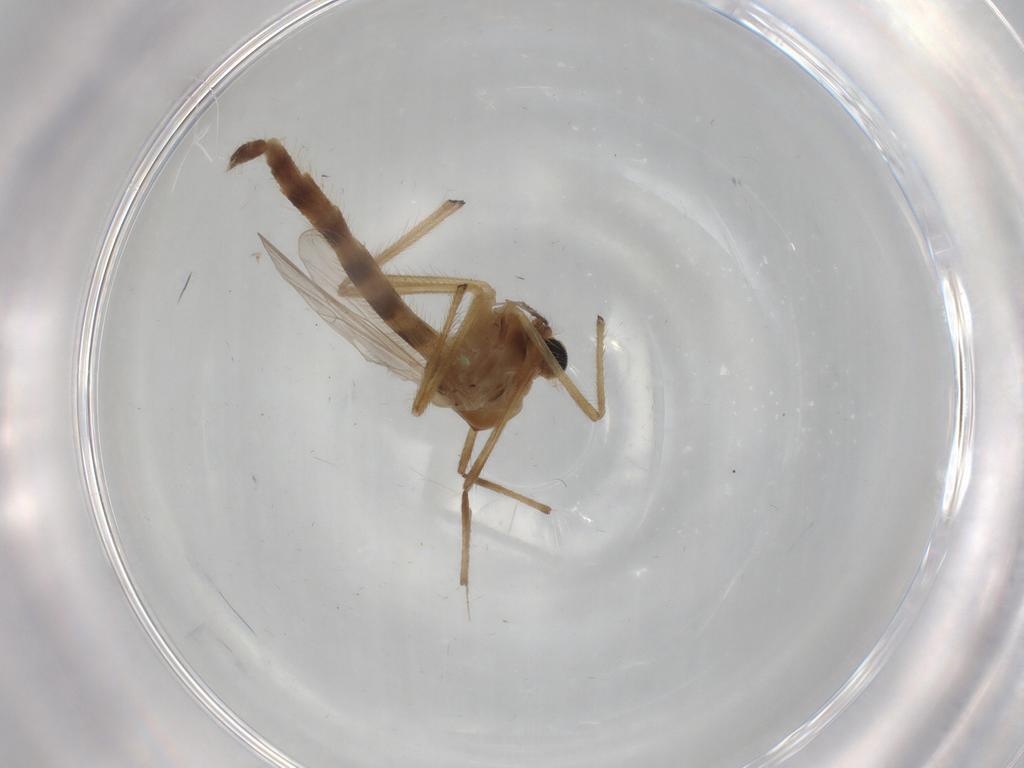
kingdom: Animalia
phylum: Arthropoda
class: Insecta
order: Diptera
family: Chironomidae
